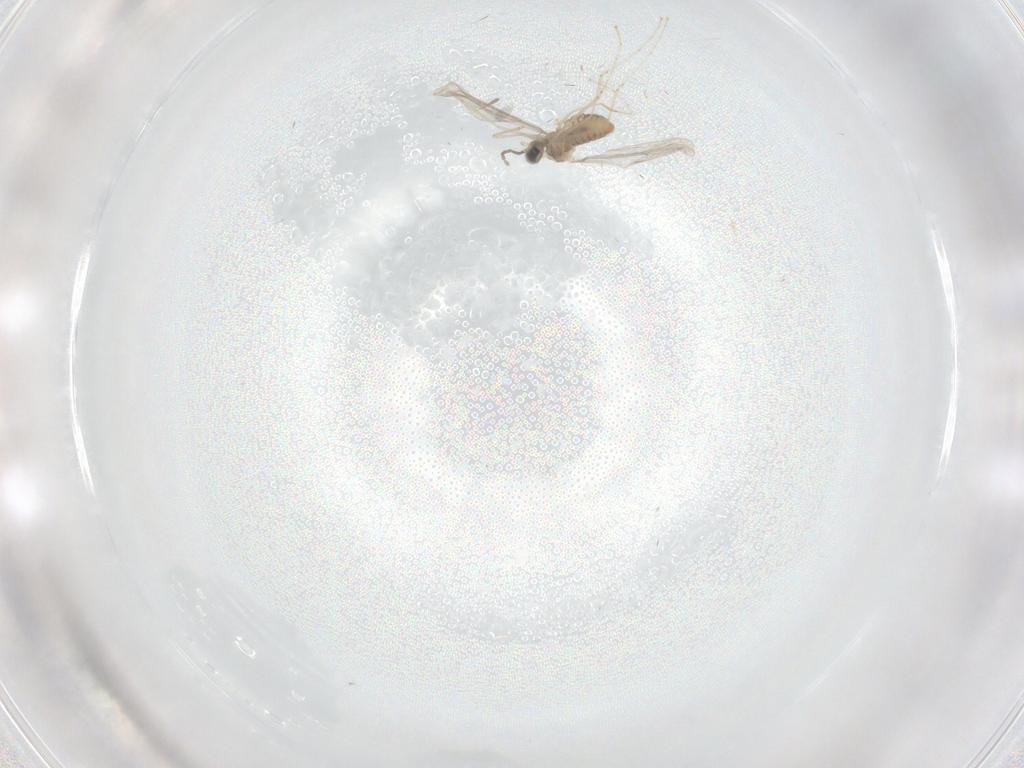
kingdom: Animalia
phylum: Arthropoda
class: Insecta
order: Diptera
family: Cecidomyiidae
